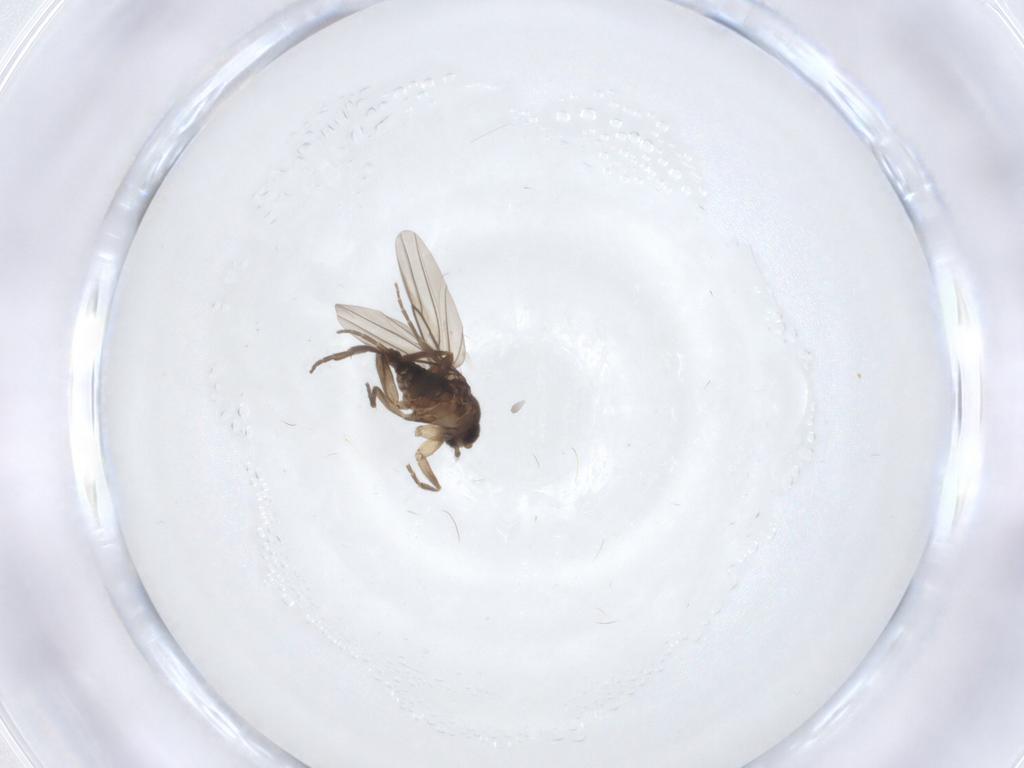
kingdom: Animalia
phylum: Arthropoda
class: Insecta
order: Diptera
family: Phoridae
